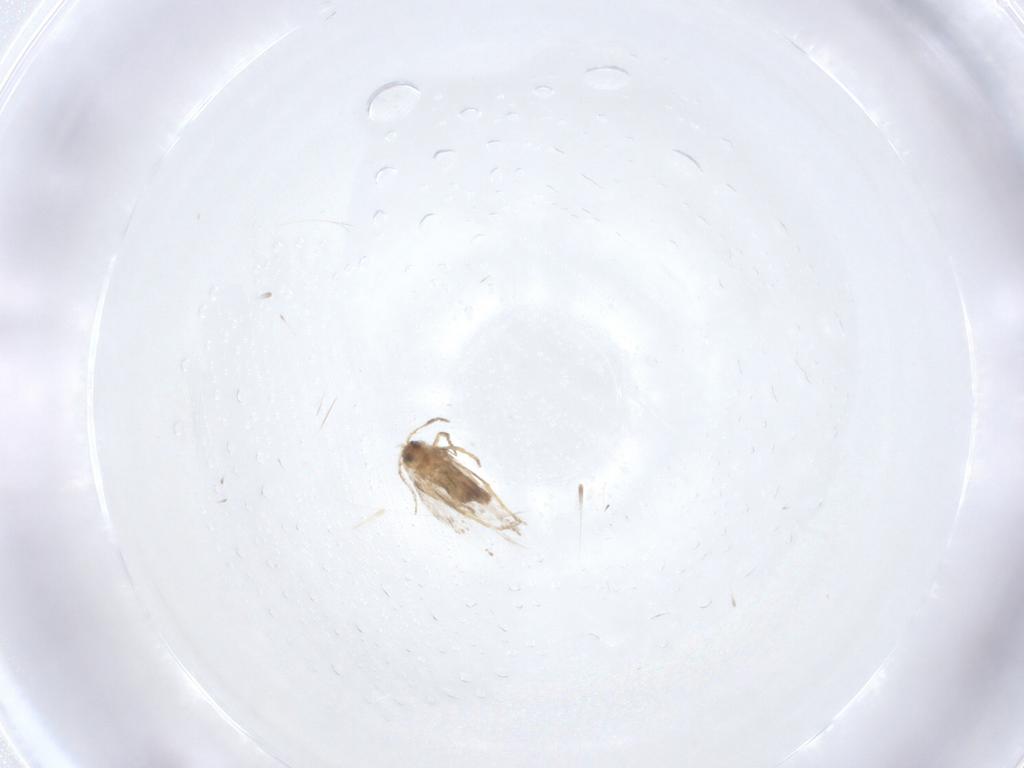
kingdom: Animalia
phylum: Arthropoda
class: Insecta
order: Lepidoptera
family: Nepticulidae
